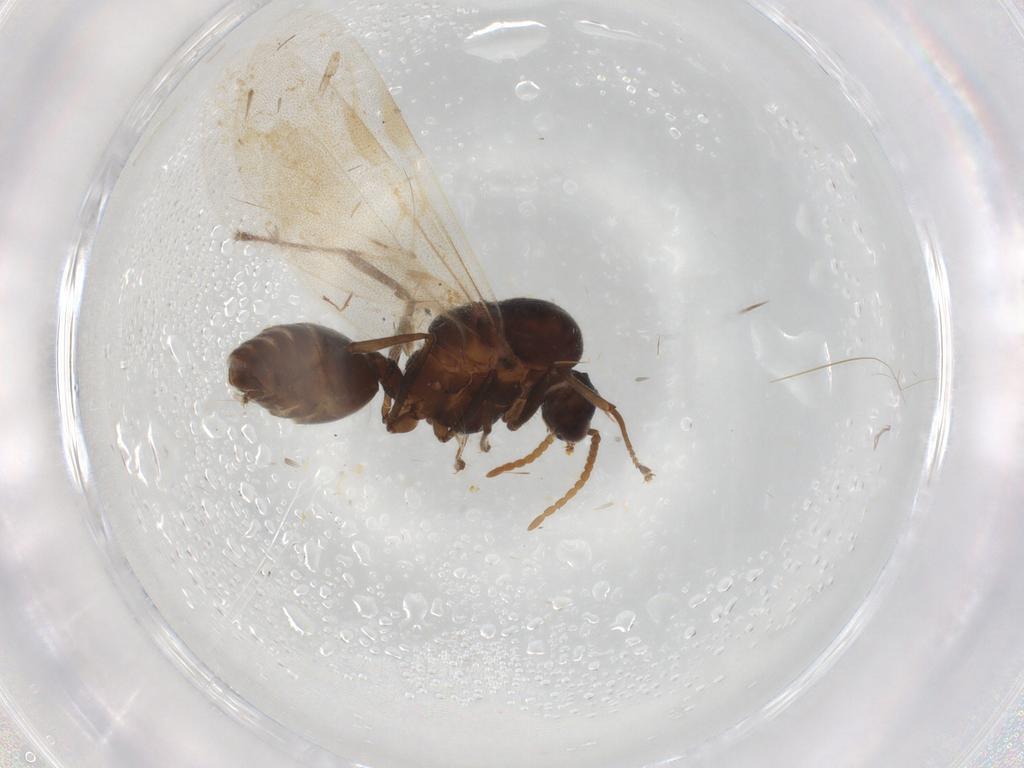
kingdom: Animalia
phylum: Arthropoda
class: Insecta
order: Hymenoptera
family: Formicidae
